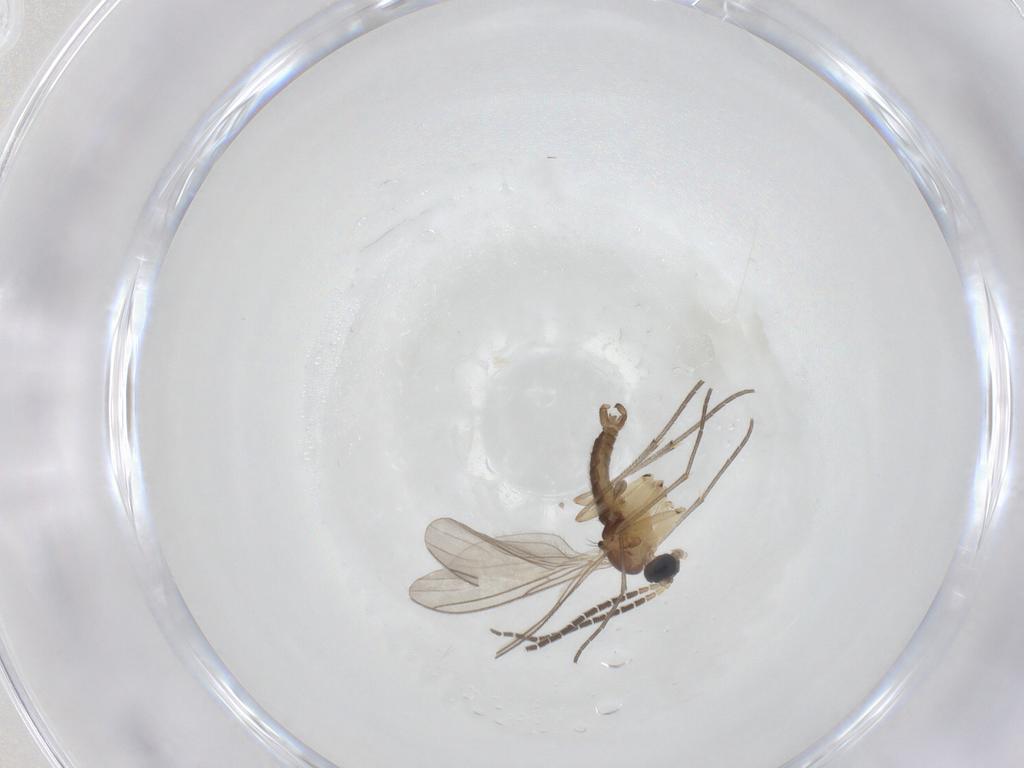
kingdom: Animalia
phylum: Arthropoda
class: Insecta
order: Diptera
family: Sciaridae
